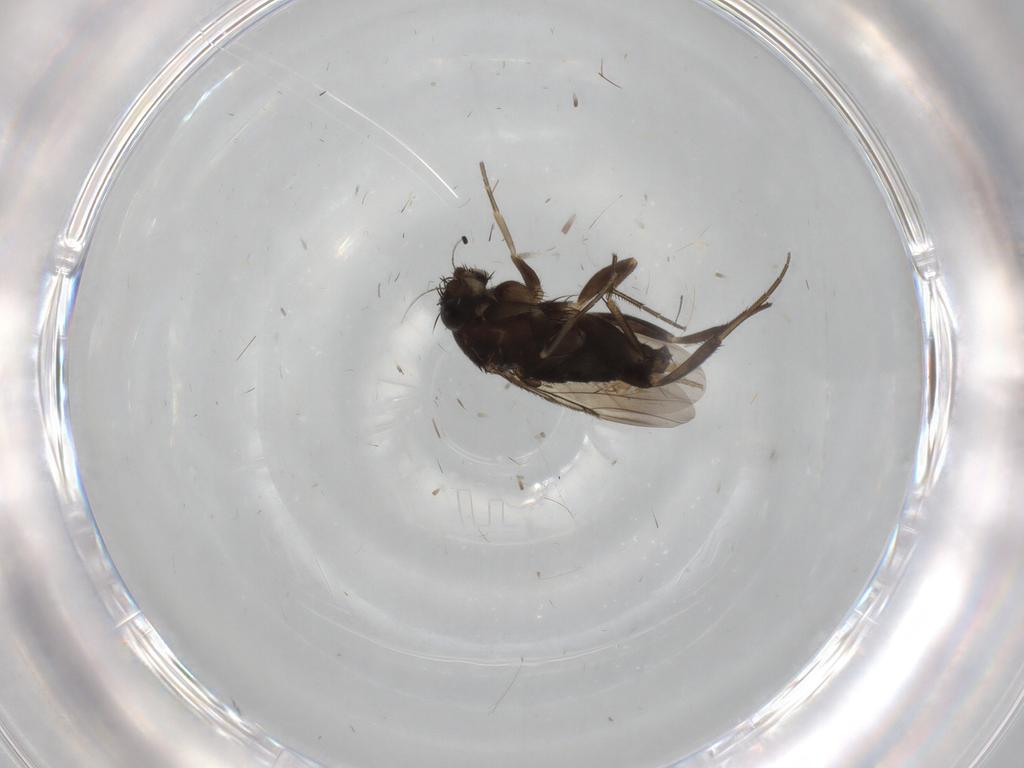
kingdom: Animalia
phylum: Arthropoda
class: Insecta
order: Diptera
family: Phoridae
